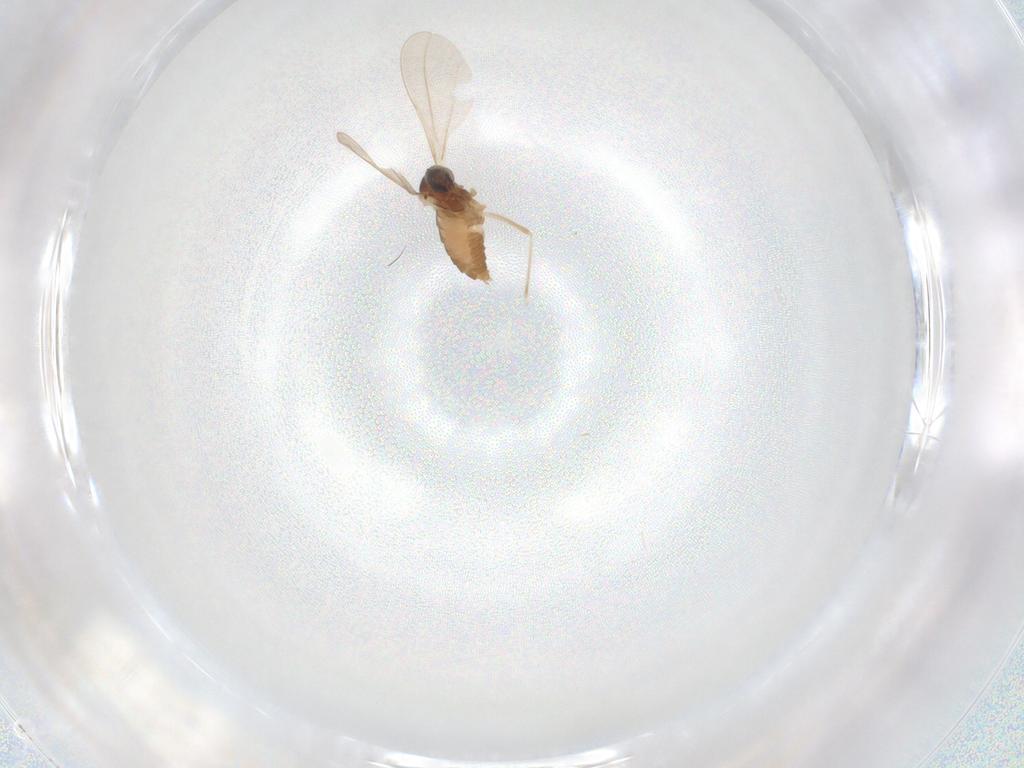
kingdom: Animalia
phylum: Arthropoda
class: Insecta
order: Diptera
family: Cecidomyiidae
